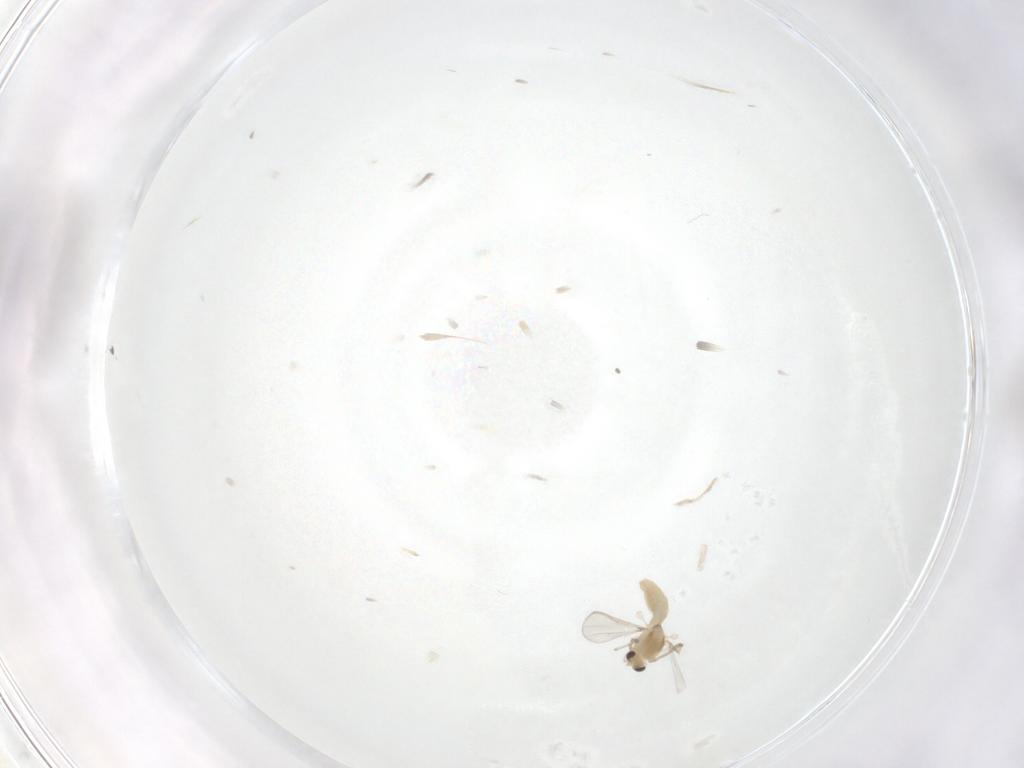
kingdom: Animalia
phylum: Arthropoda
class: Insecta
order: Diptera
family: Chironomidae
